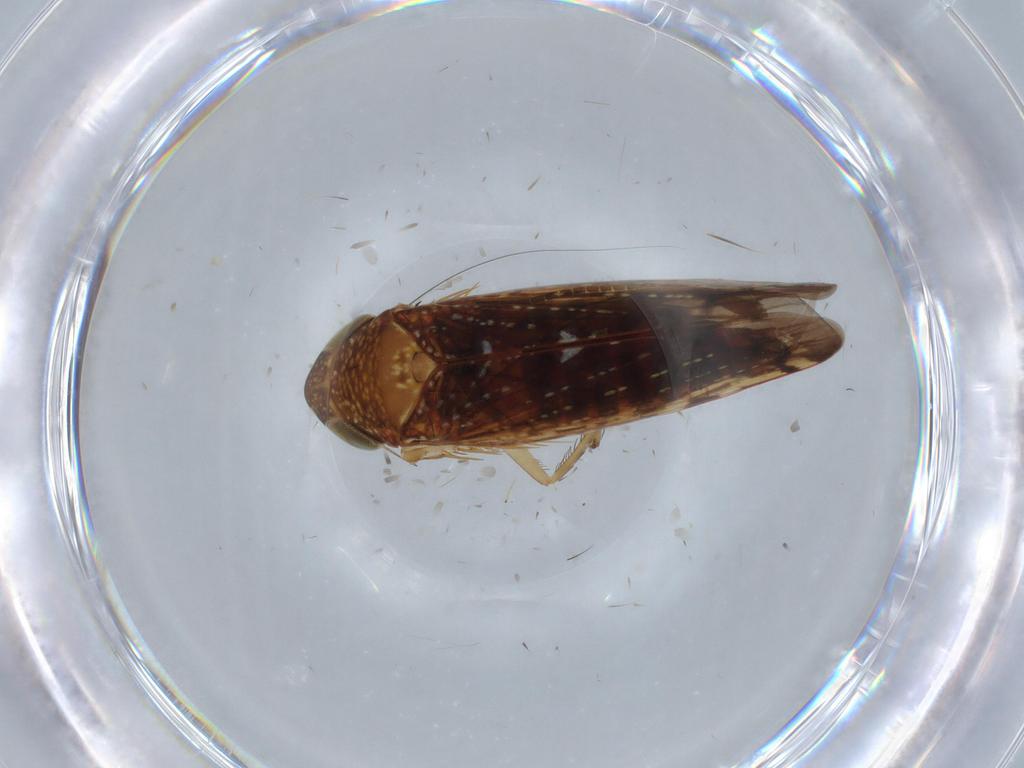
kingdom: Animalia
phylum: Arthropoda
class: Insecta
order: Hemiptera
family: Cicadellidae
